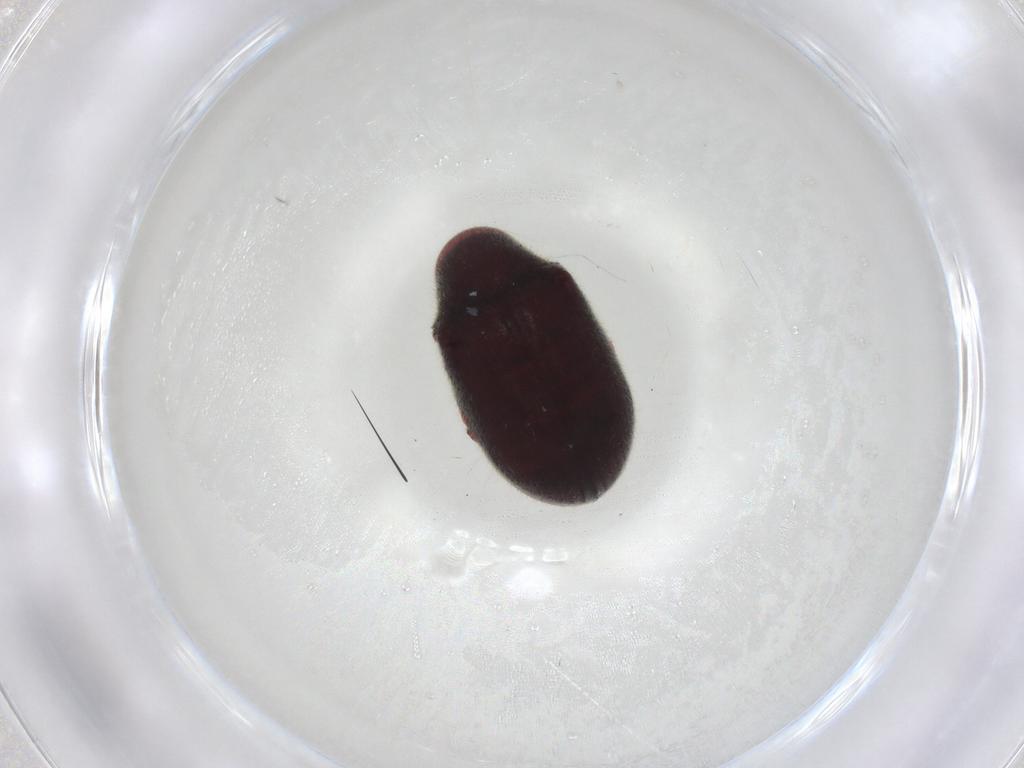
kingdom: Animalia
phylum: Arthropoda
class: Insecta
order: Coleoptera
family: Ptinidae
